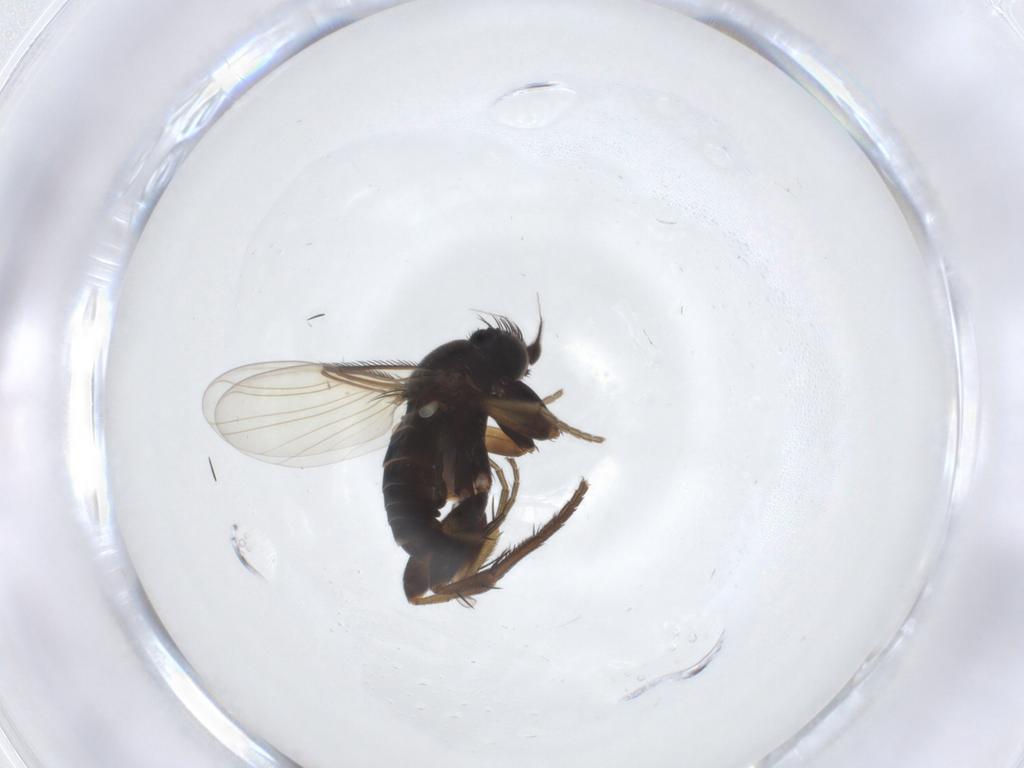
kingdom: Animalia
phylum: Arthropoda
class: Insecta
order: Diptera
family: Phoridae
